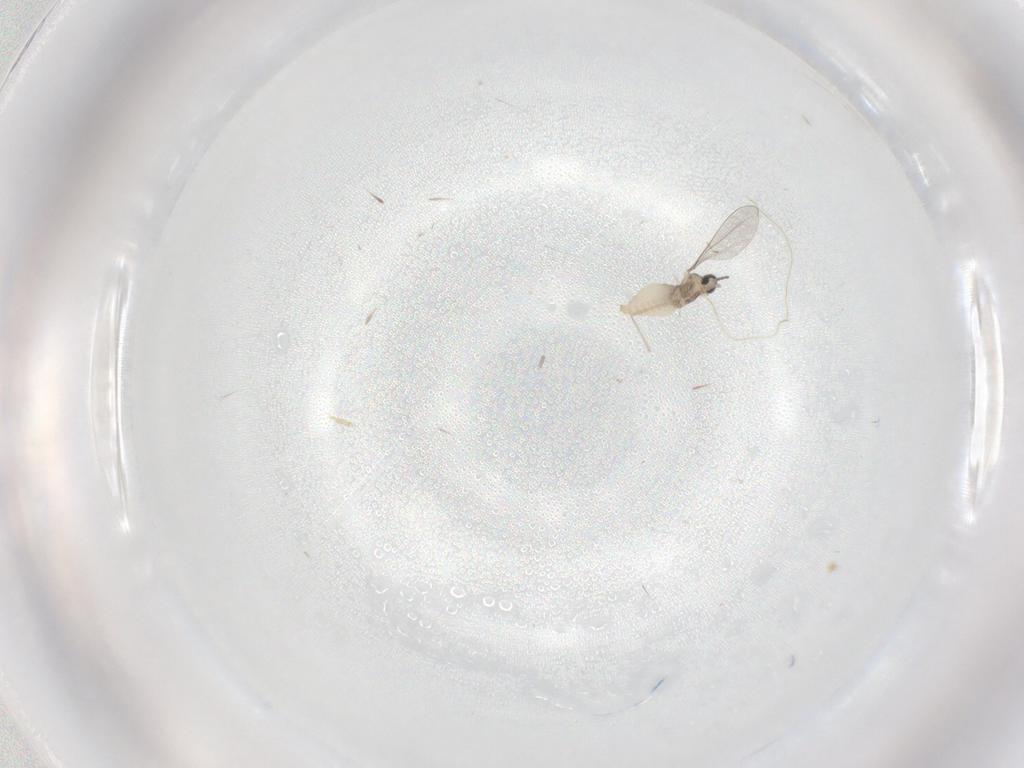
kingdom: Animalia
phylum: Arthropoda
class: Insecta
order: Diptera
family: Cecidomyiidae
